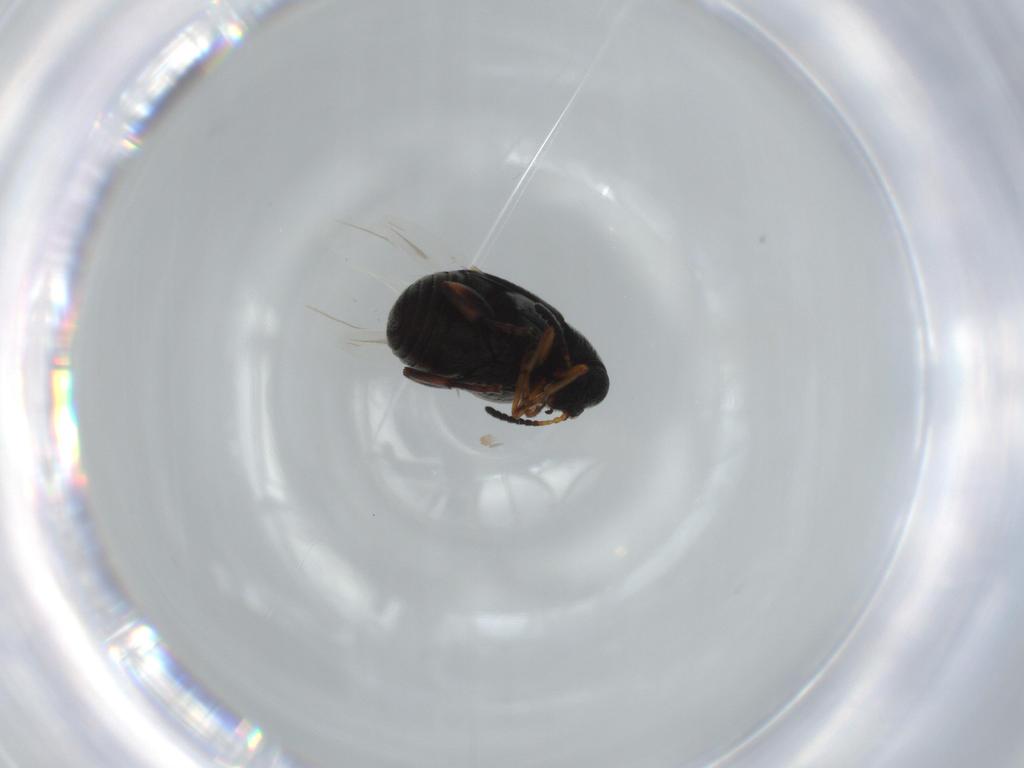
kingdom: Animalia
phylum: Arthropoda
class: Insecta
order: Coleoptera
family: Chrysomelidae
